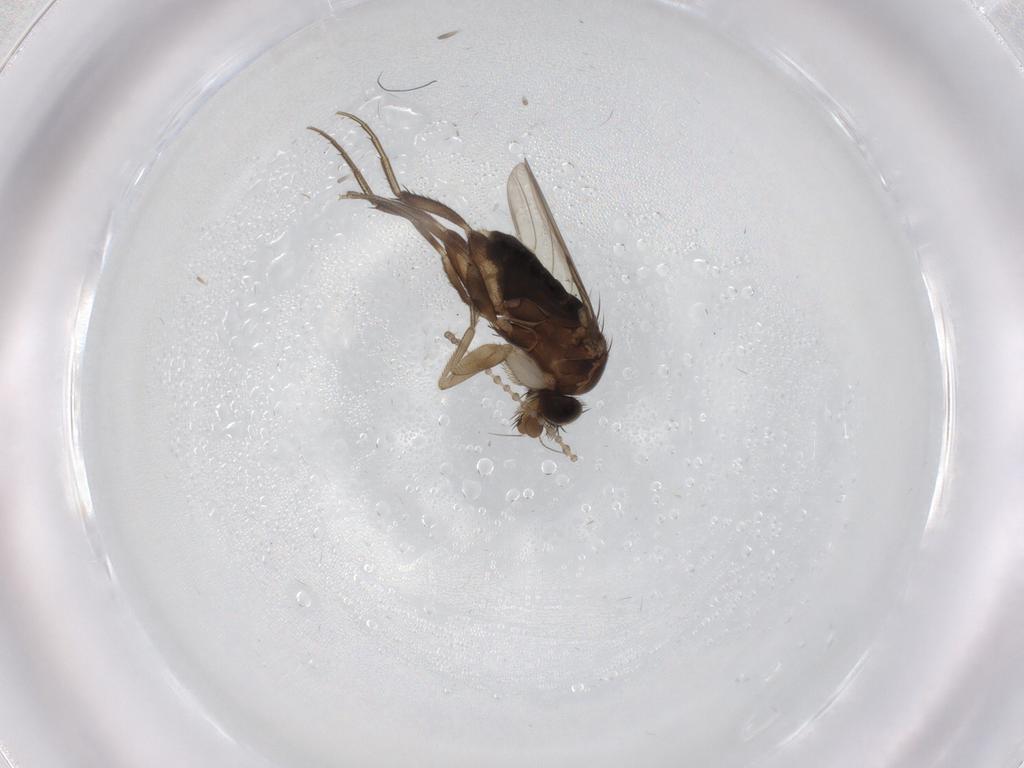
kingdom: Animalia
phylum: Arthropoda
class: Insecta
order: Diptera
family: Phoridae
